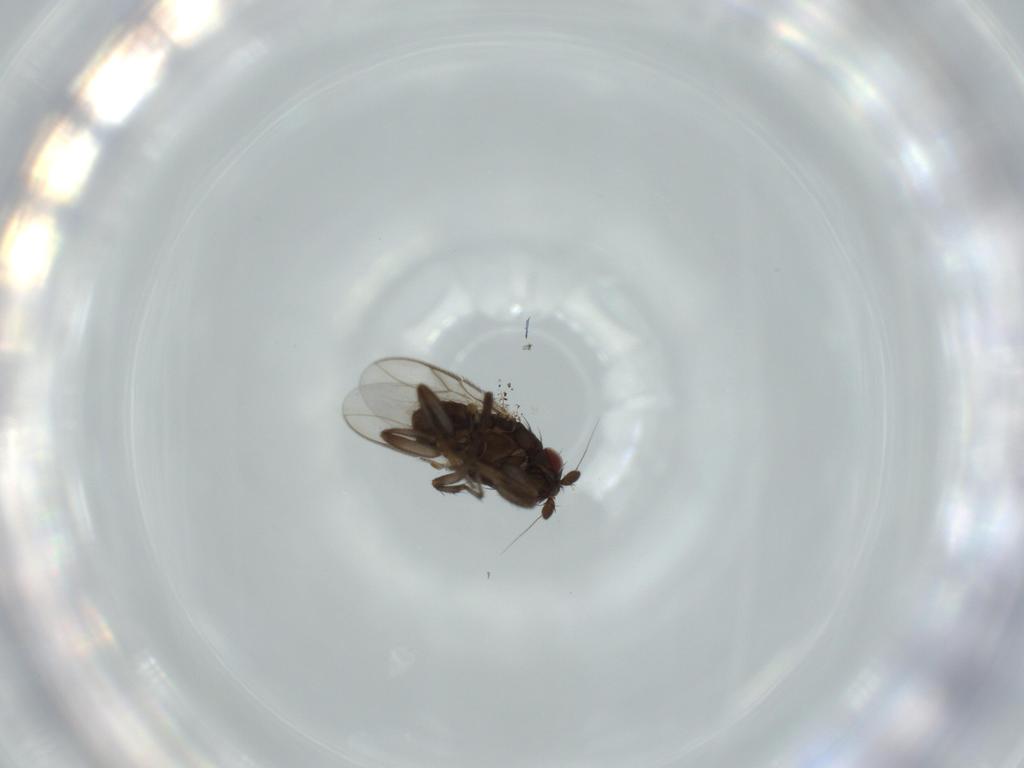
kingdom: Animalia
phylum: Arthropoda
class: Insecta
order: Diptera
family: Sphaeroceridae
